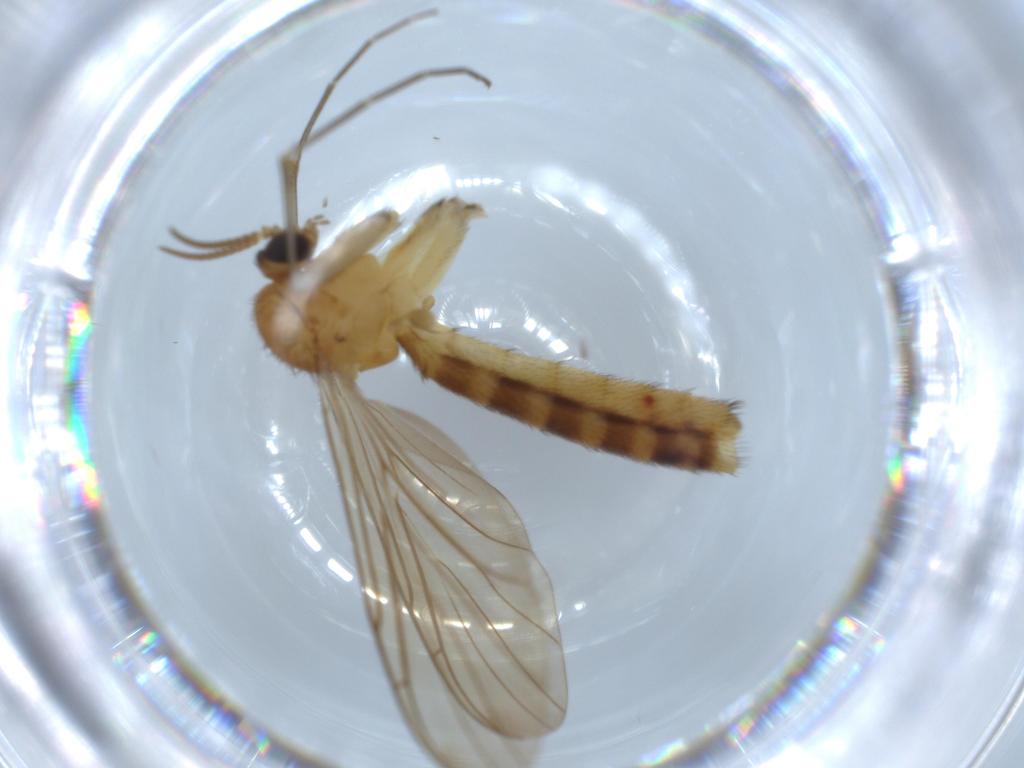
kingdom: Animalia
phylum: Arthropoda
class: Insecta
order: Diptera
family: Keroplatidae
